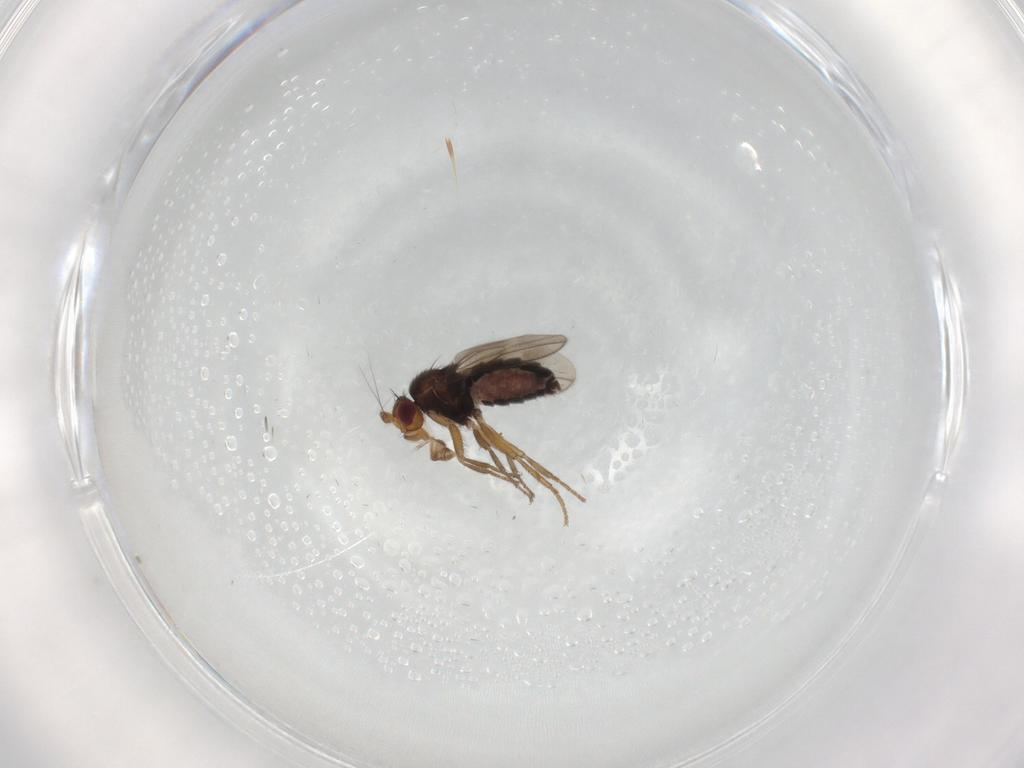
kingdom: Animalia
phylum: Arthropoda
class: Insecta
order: Diptera
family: Sphaeroceridae
